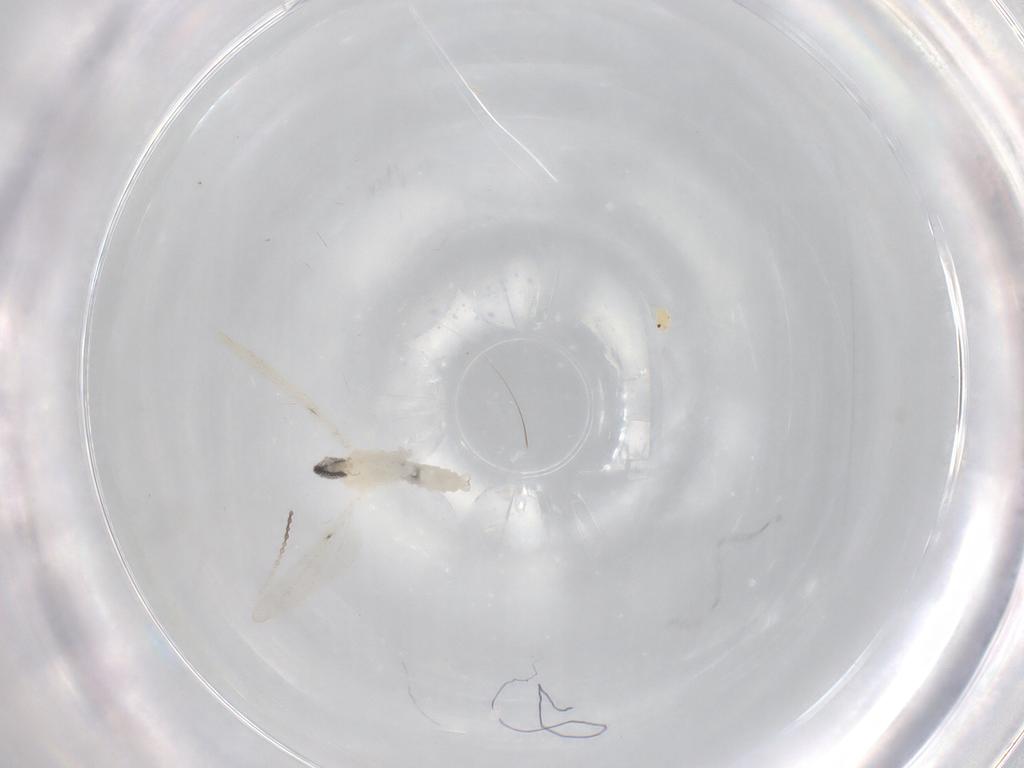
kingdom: Animalia
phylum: Arthropoda
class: Insecta
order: Diptera
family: Cecidomyiidae
